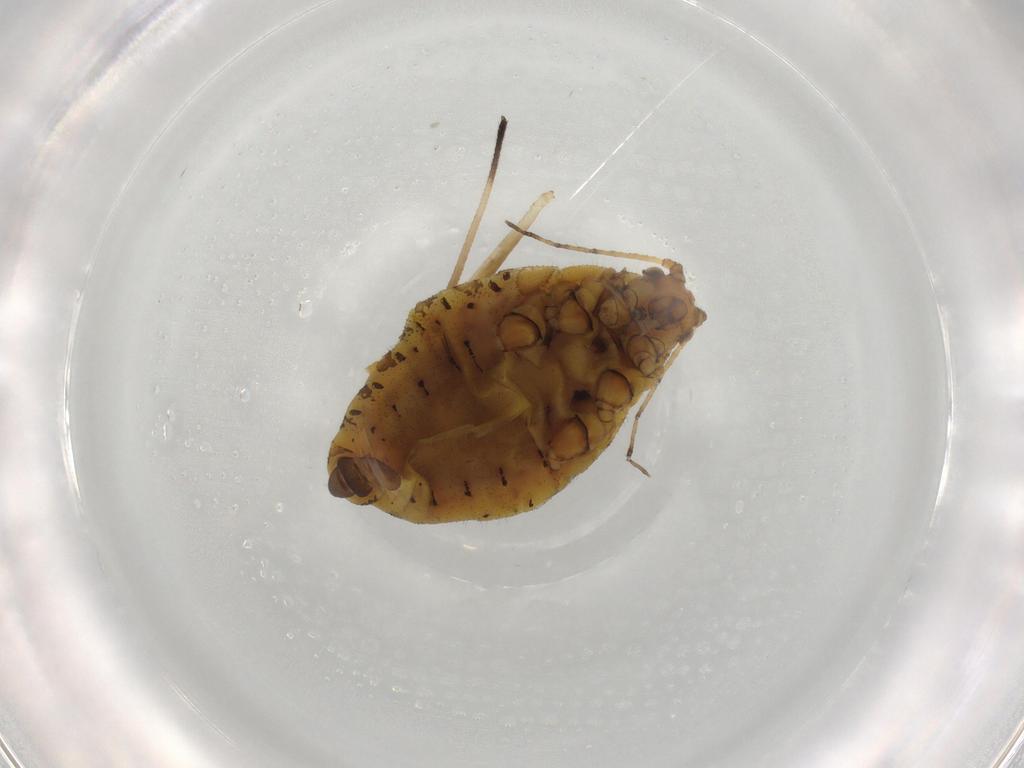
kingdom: Animalia
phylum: Arthropoda
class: Insecta
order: Hemiptera
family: Aphididae
